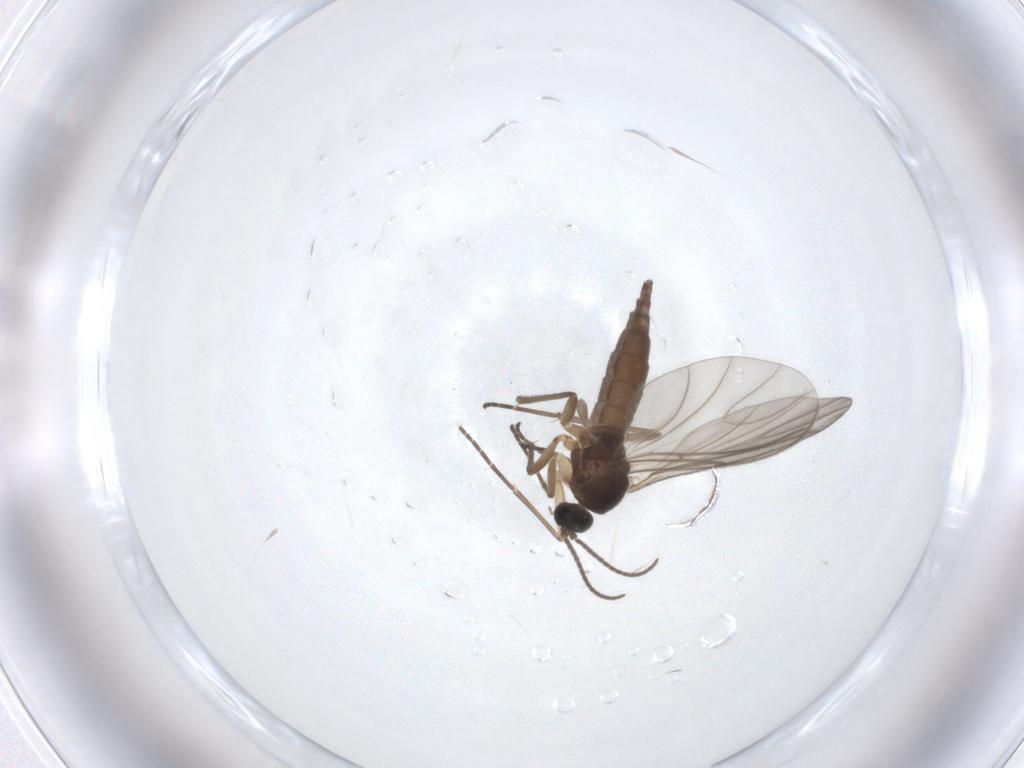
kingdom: Animalia
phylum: Arthropoda
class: Insecta
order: Diptera
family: Sciaridae
